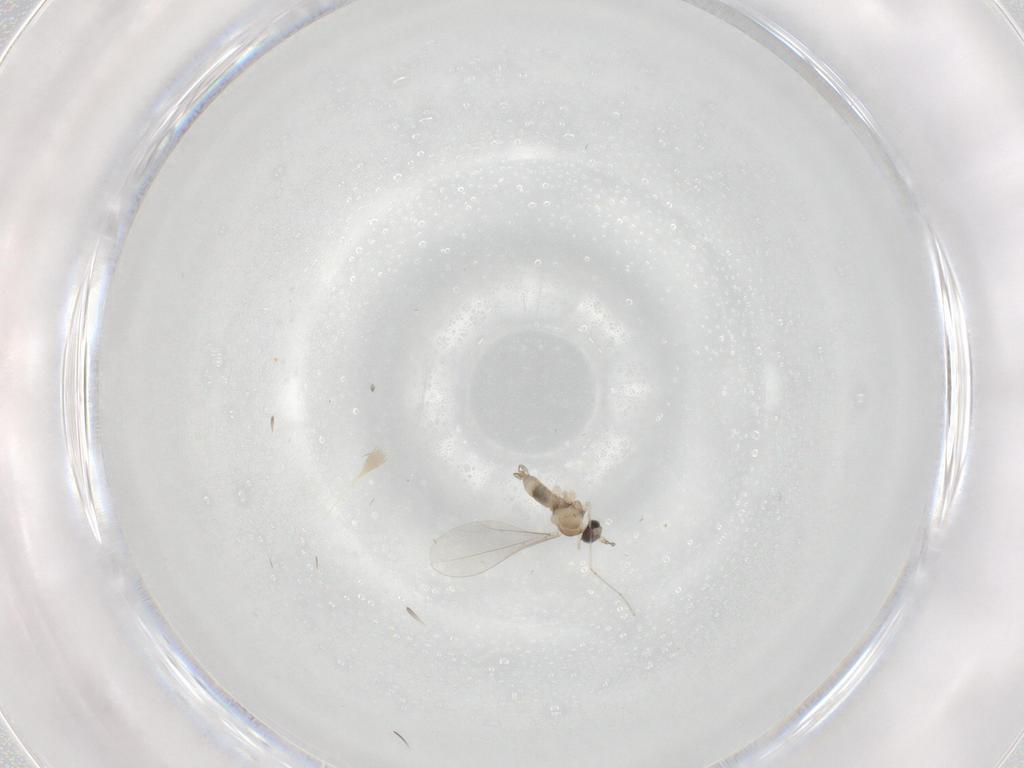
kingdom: Animalia
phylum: Arthropoda
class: Insecta
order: Diptera
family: Cecidomyiidae
